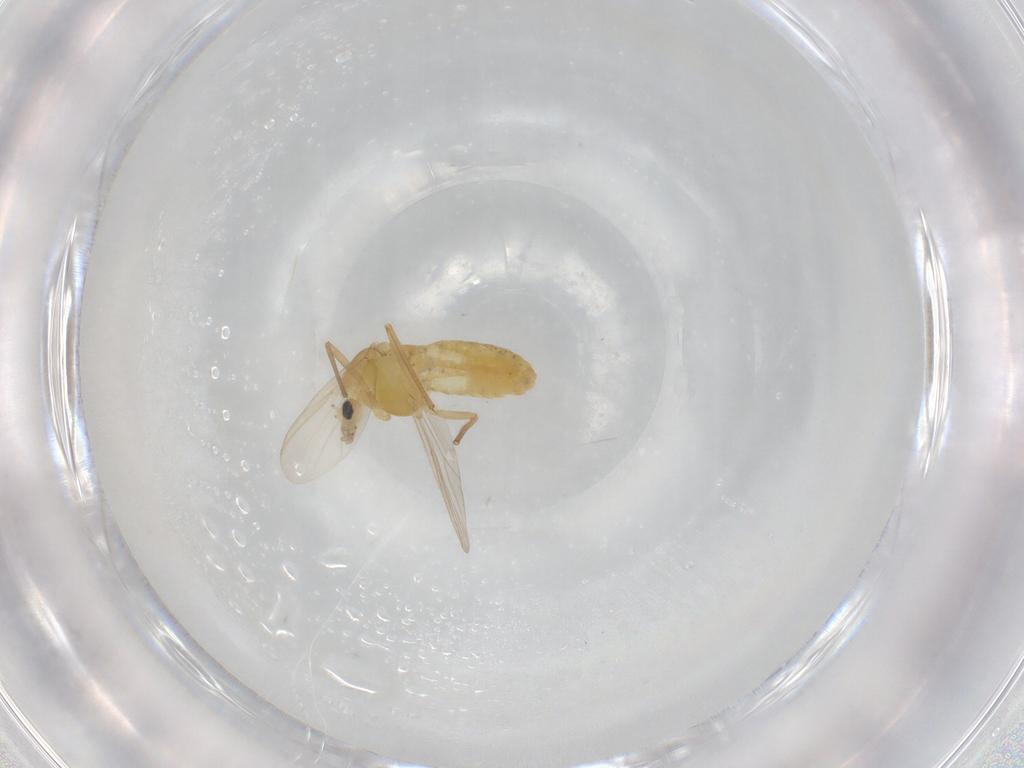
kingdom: Animalia
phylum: Arthropoda
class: Insecta
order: Diptera
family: Chironomidae
